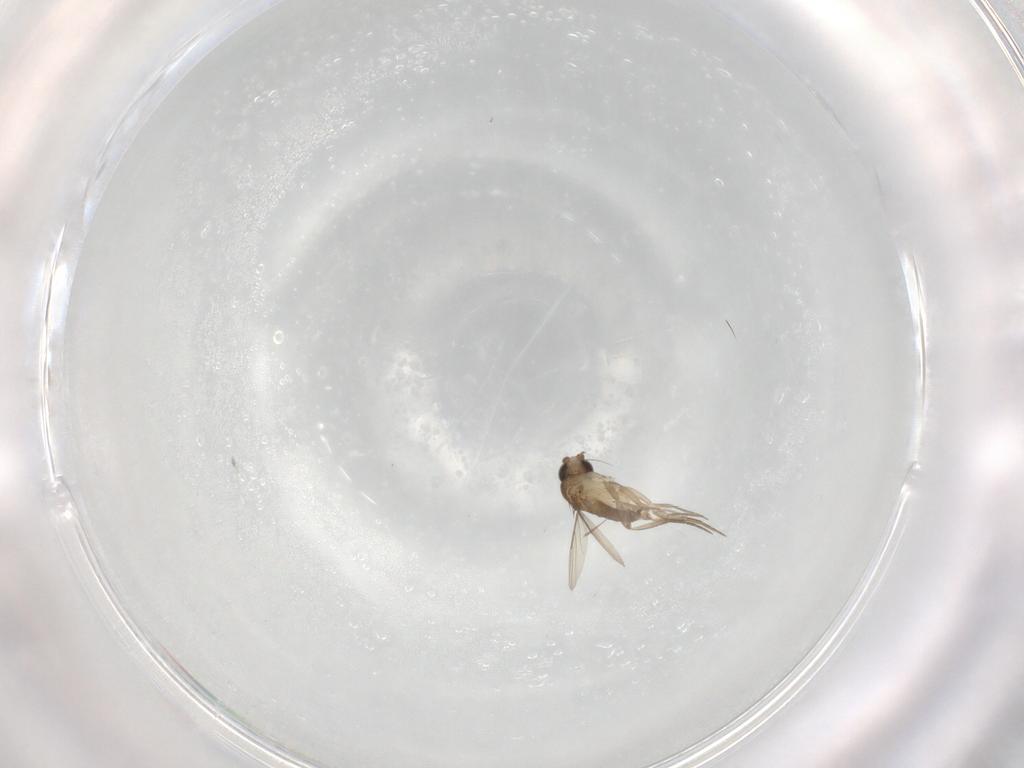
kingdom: Animalia
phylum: Arthropoda
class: Insecta
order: Diptera
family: Phoridae
